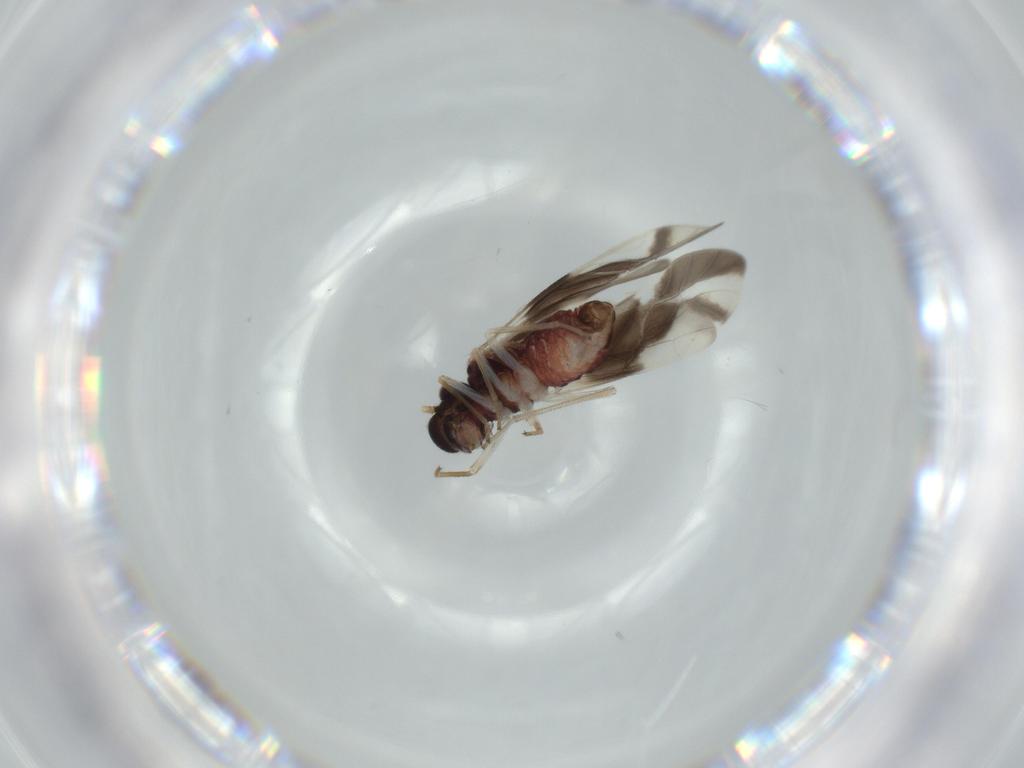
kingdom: Animalia
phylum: Arthropoda
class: Insecta
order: Psocodea
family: Caeciliusidae
